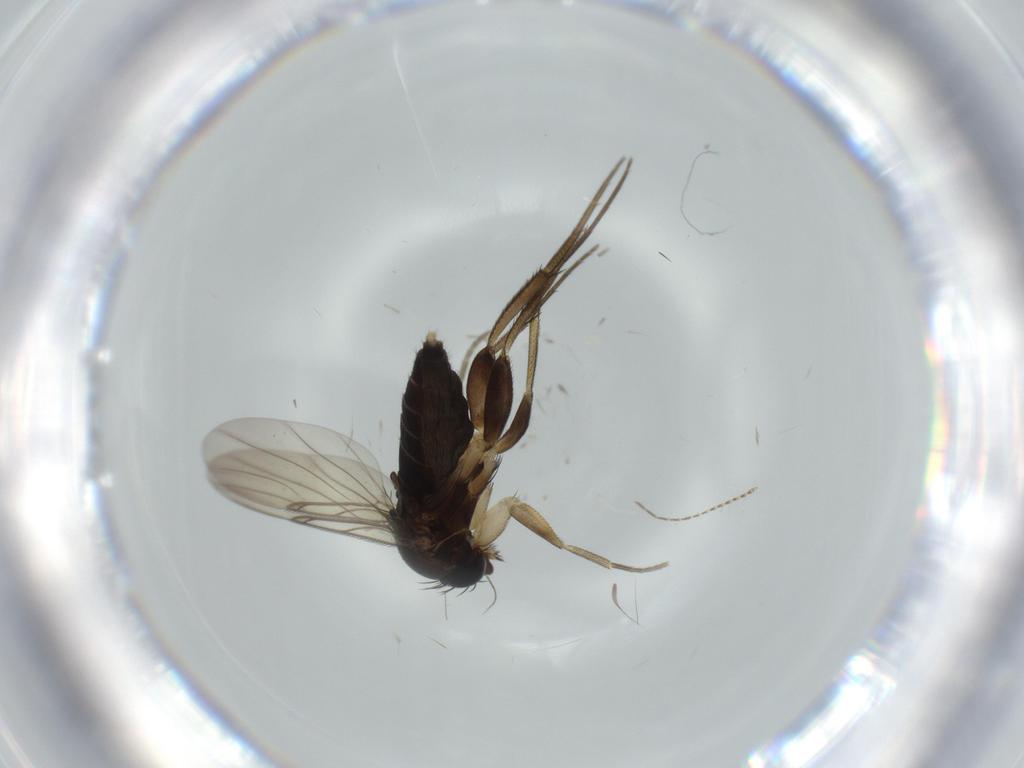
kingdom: Animalia
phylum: Arthropoda
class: Insecta
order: Diptera
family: Phoridae
